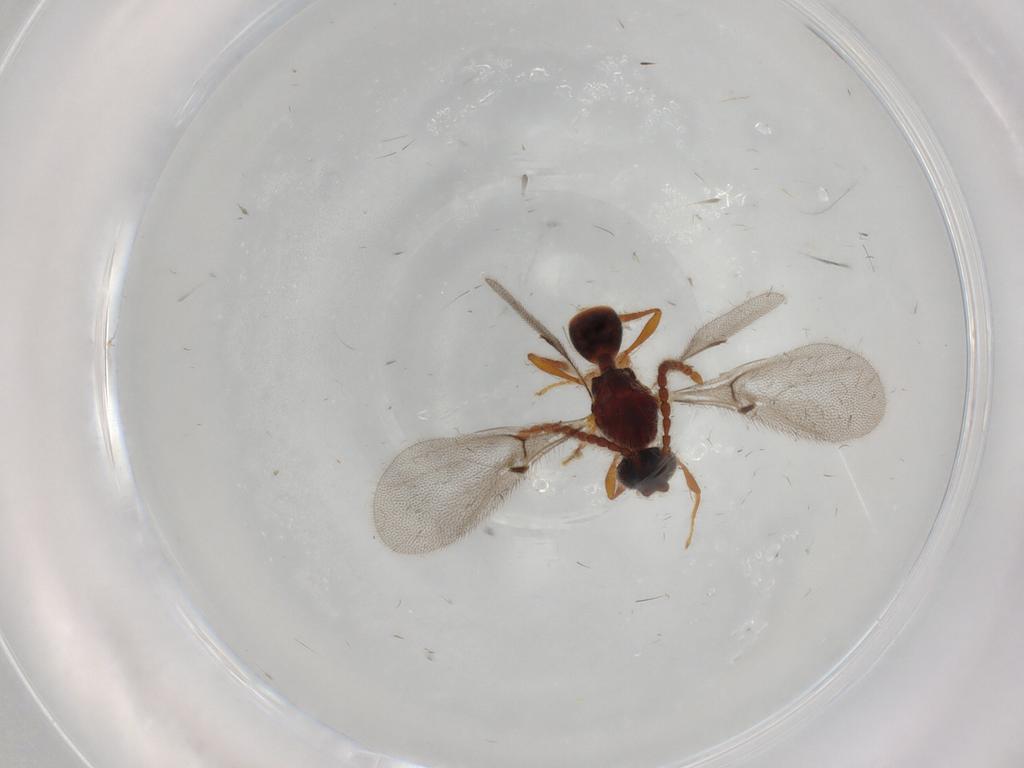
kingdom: Animalia
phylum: Arthropoda
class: Insecta
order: Hymenoptera
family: Diapriidae
